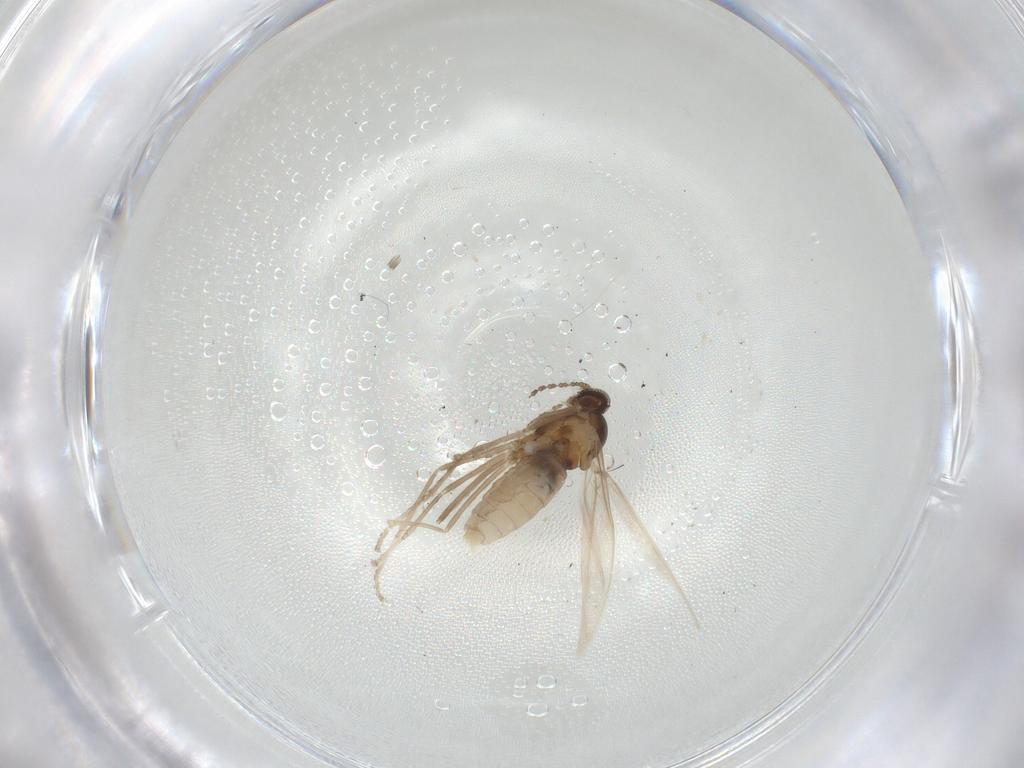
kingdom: Animalia
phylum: Arthropoda
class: Insecta
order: Diptera
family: Cecidomyiidae
